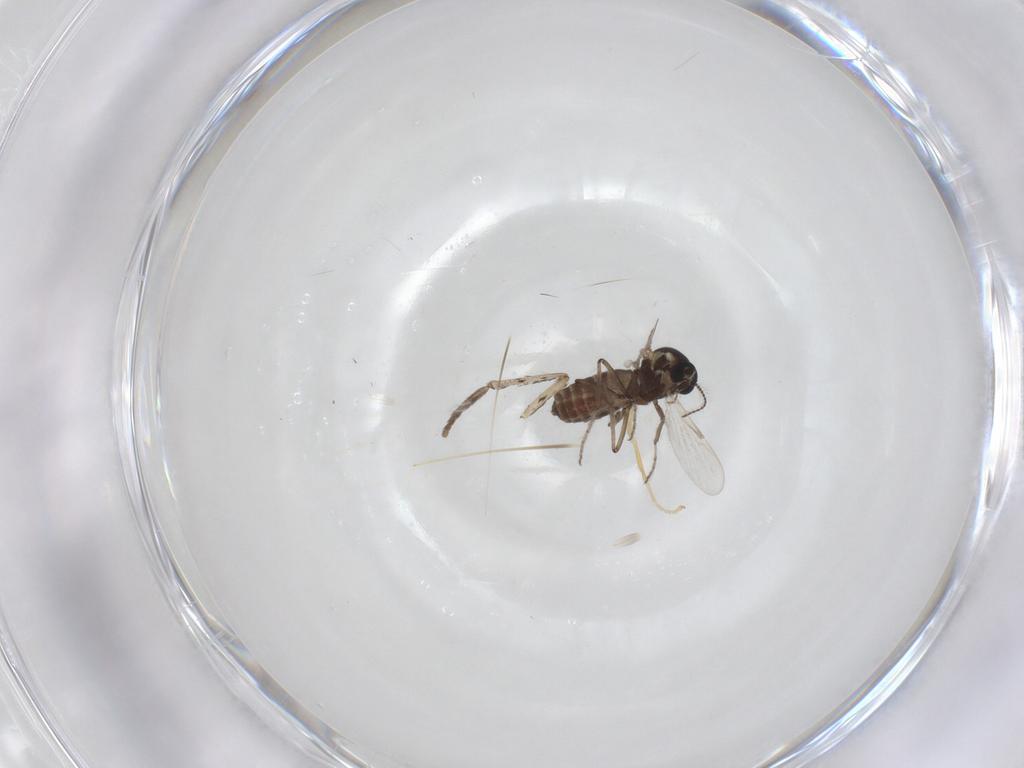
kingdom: Animalia
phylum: Arthropoda
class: Insecta
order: Diptera
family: Ceratopogonidae
